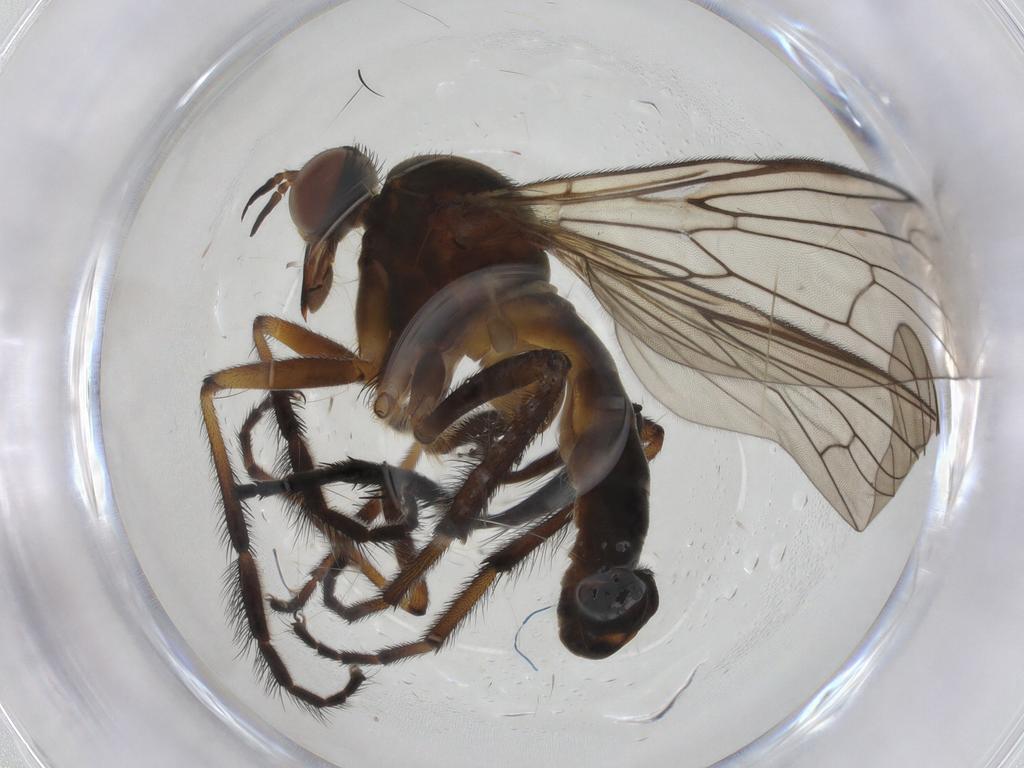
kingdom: Animalia
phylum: Arthropoda
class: Insecta
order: Diptera
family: Empididae
